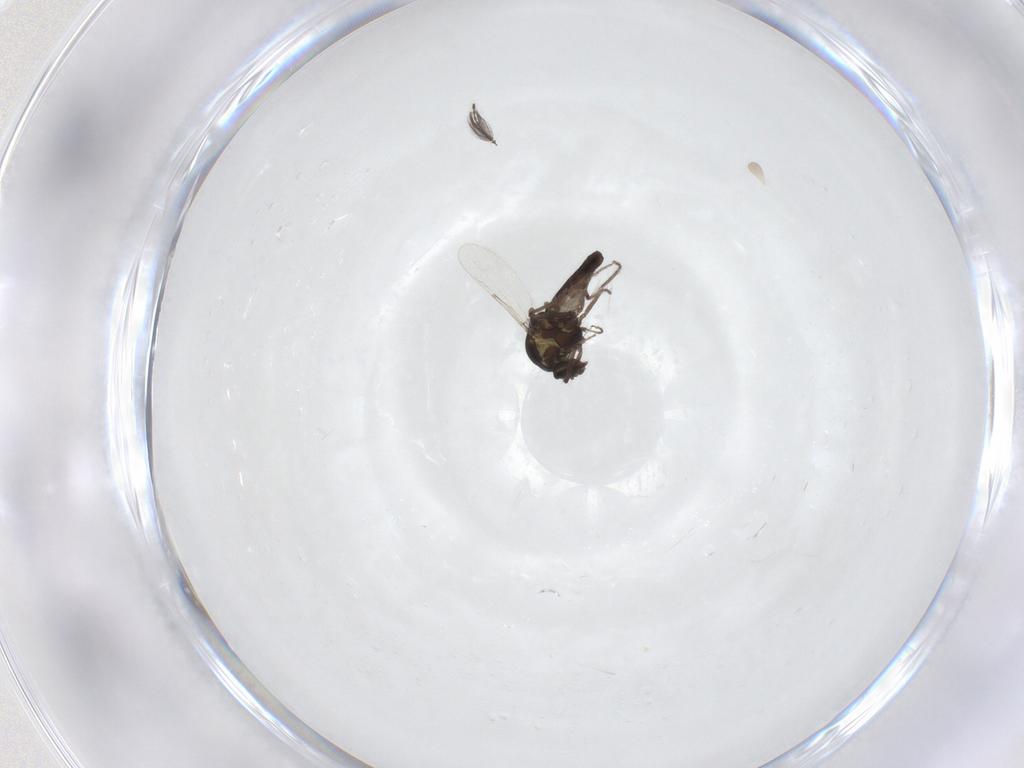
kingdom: Animalia
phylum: Arthropoda
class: Insecta
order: Diptera
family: Ceratopogonidae
